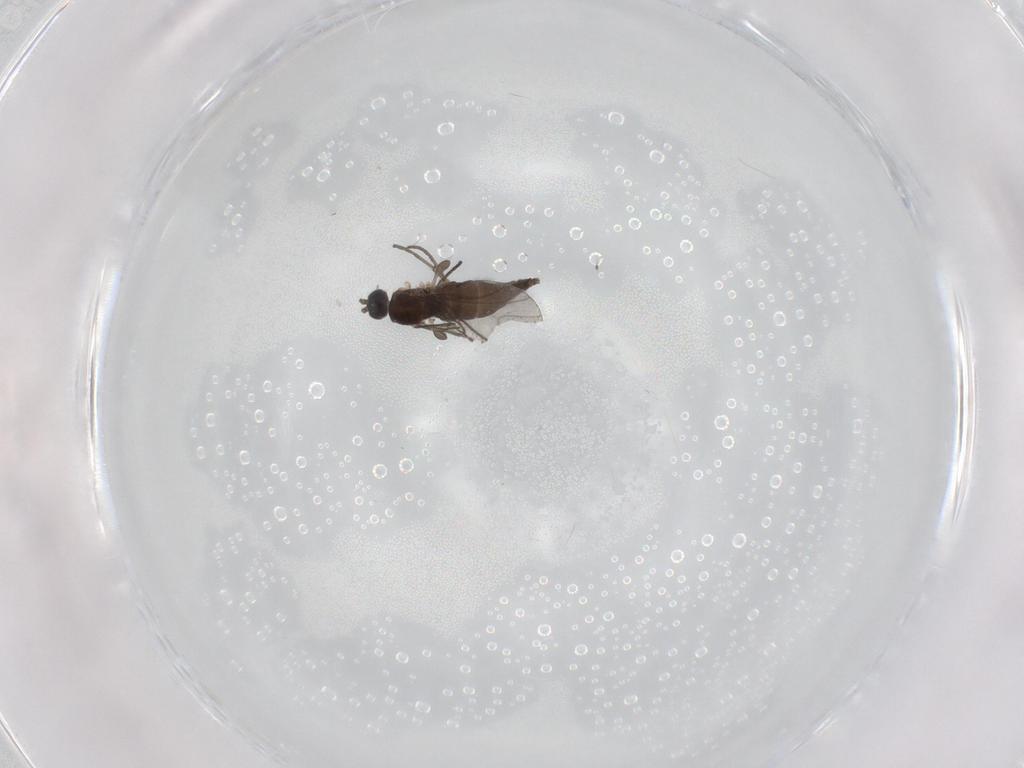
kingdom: Animalia
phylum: Arthropoda
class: Insecta
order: Diptera
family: Sciaridae
